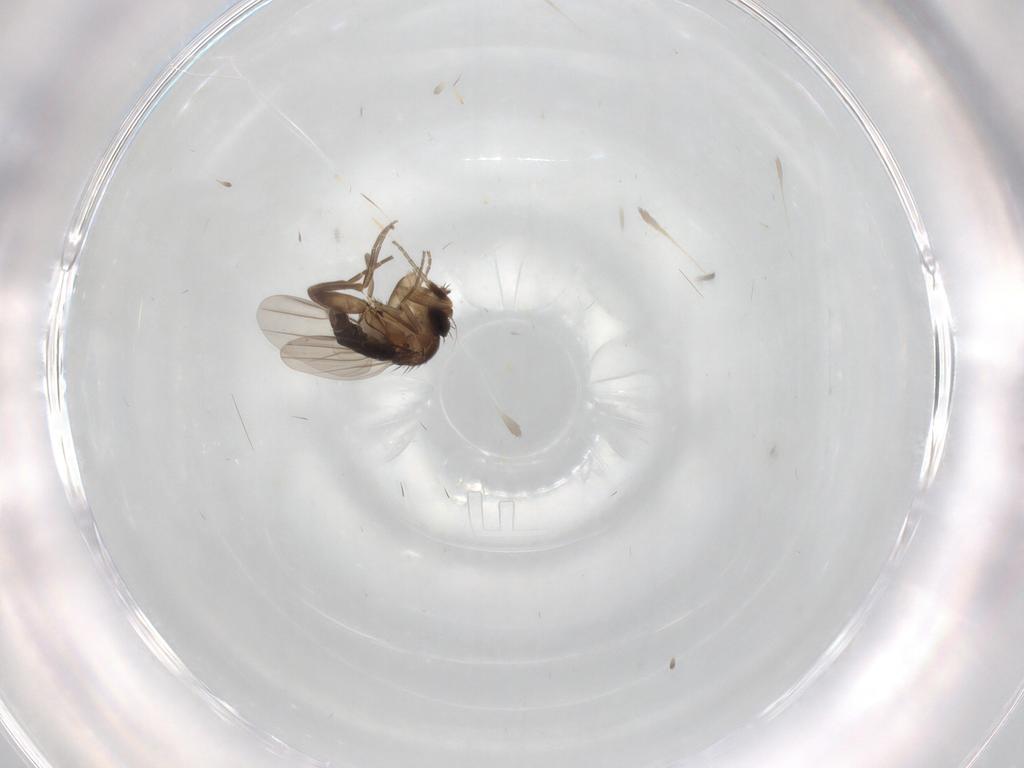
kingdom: Animalia
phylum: Arthropoda
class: Insecta
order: Diptera
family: Phoridae
